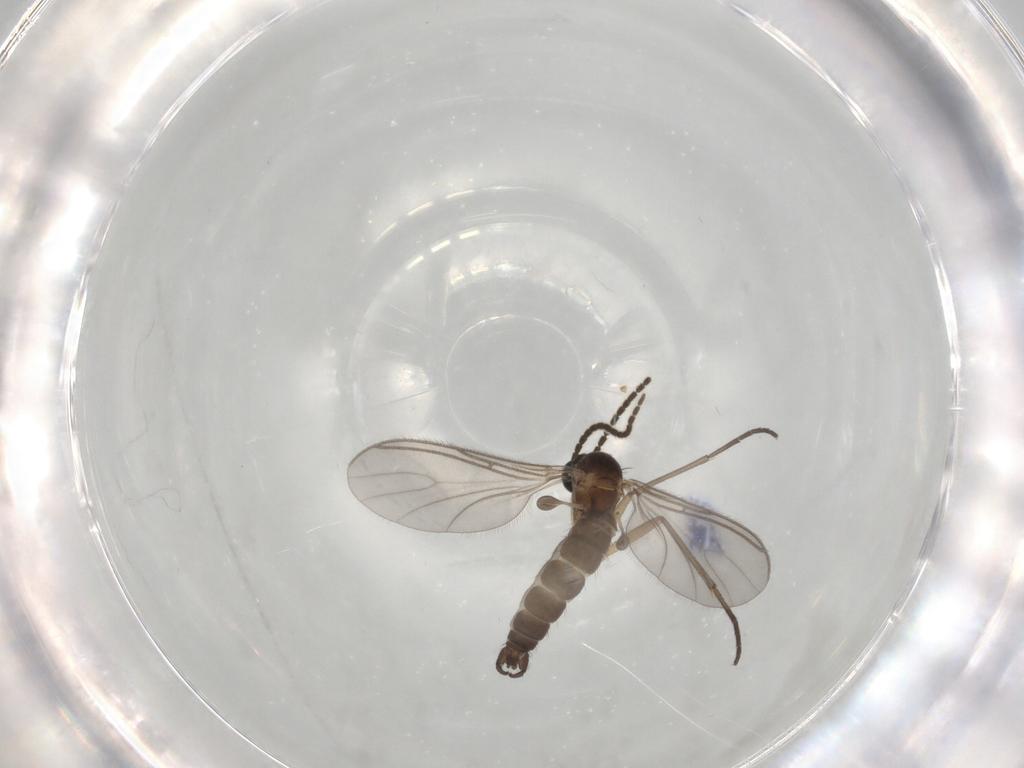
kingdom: Animalia
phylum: Arthropoda
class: Insecta
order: Diptera
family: Sciaridae
